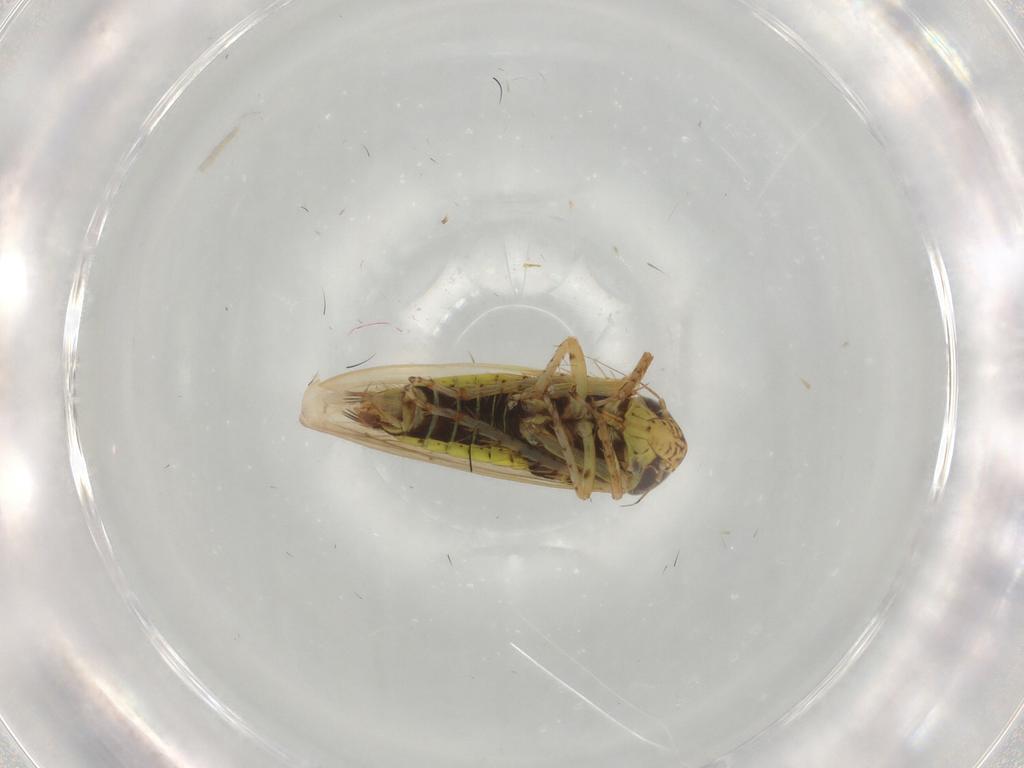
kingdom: Animalia
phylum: Arthropoda
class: Insecta
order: Hemiptera
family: Cicadellidae
